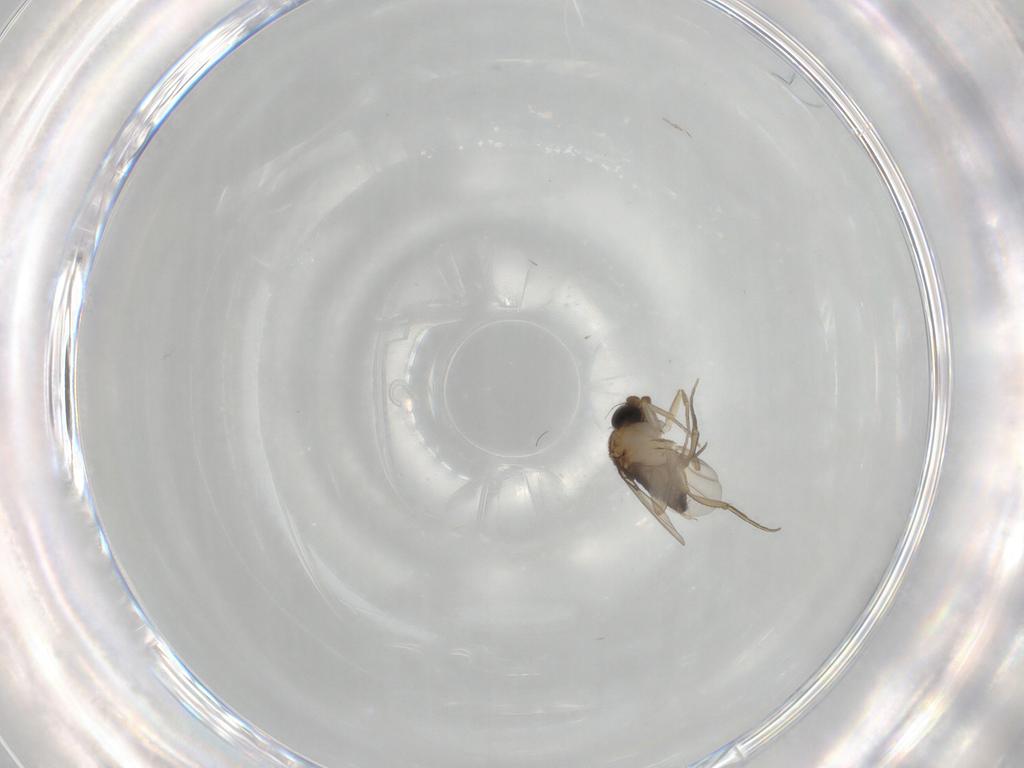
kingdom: Animalia
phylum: Arthropoda
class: Insecta
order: Diptera
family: Phoridae
